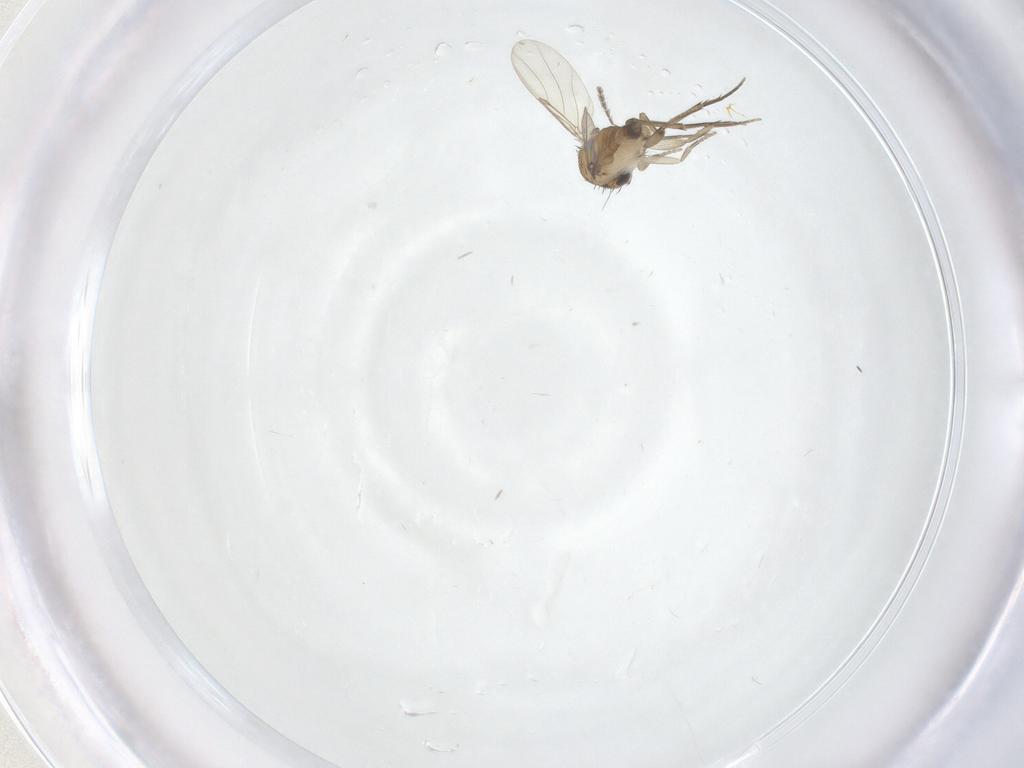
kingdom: Animalia
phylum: Arthropoda
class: Insecta
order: Diptera
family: Phoridae
